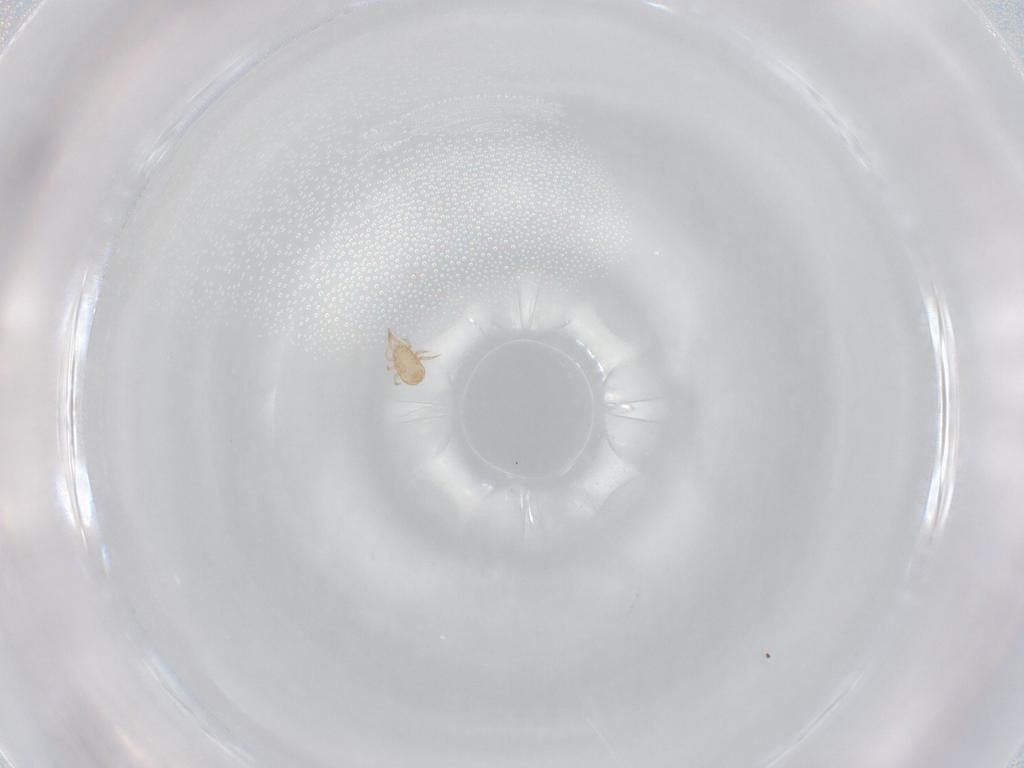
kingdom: Animalia
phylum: Arthropoda
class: Arachnida
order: Mesostigmata
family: Ameroseiidae
